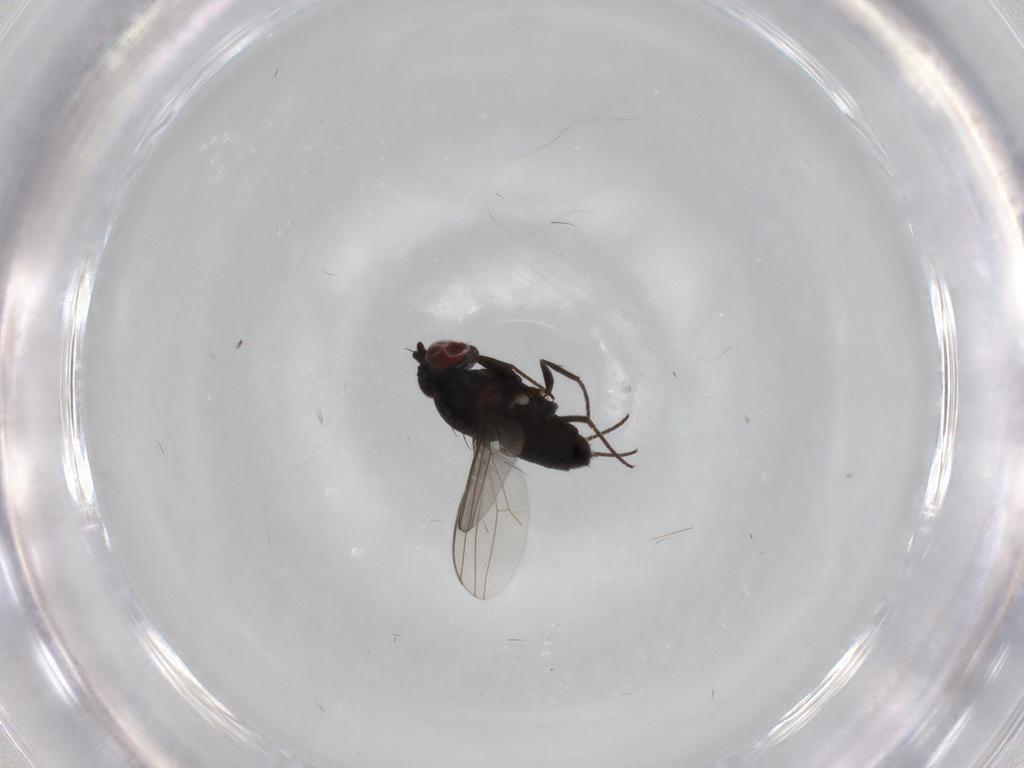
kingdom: Animalia
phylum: Arthropoda
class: Insecta
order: Diptera
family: Dolichopodidae
